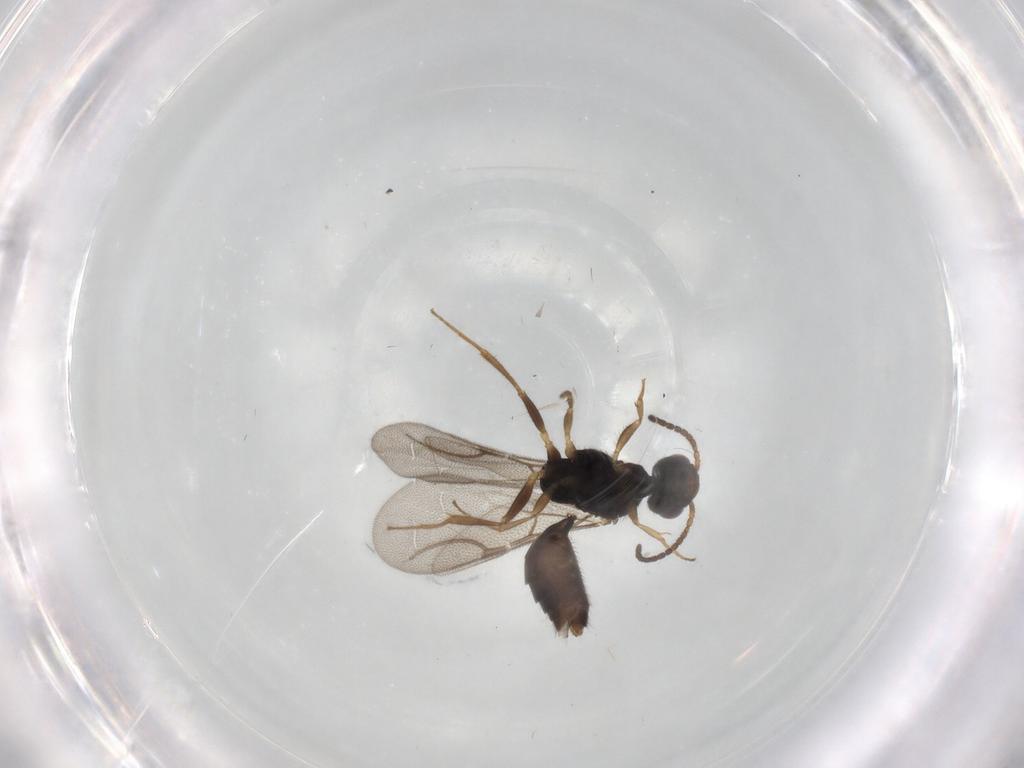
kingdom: Animalia
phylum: Arthropoda
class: Insecta
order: Hymenoptera
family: Bethylidae
